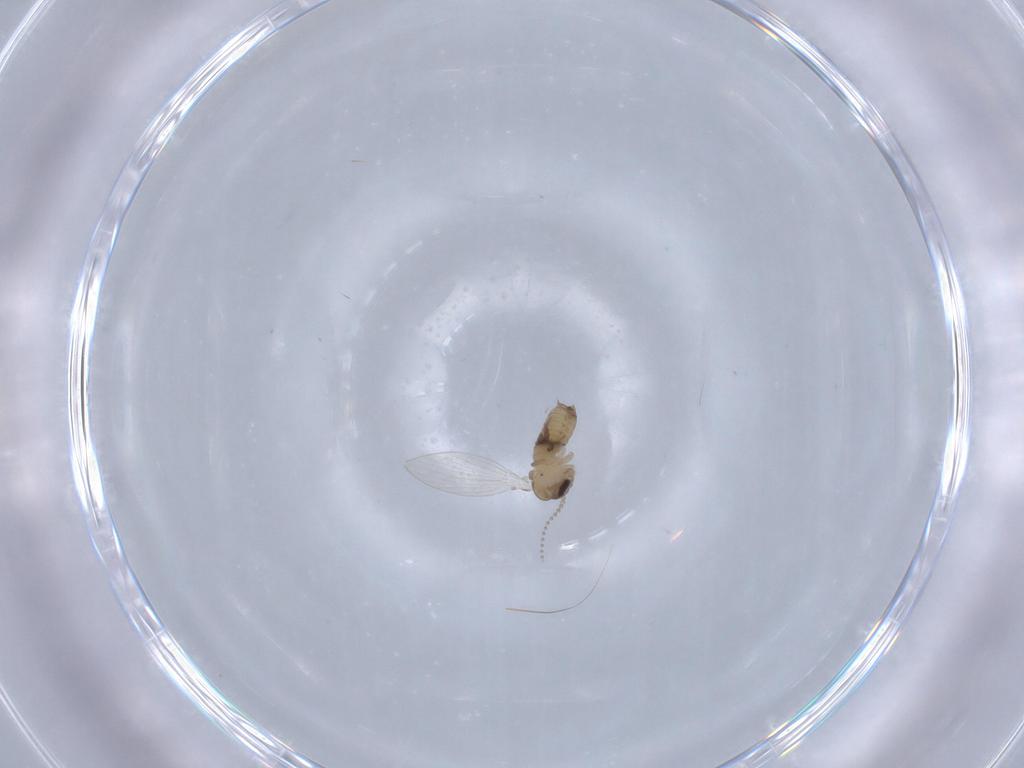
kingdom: Animalia
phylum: Arthropoda
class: Insecta
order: Diptera
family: Psychodidae
